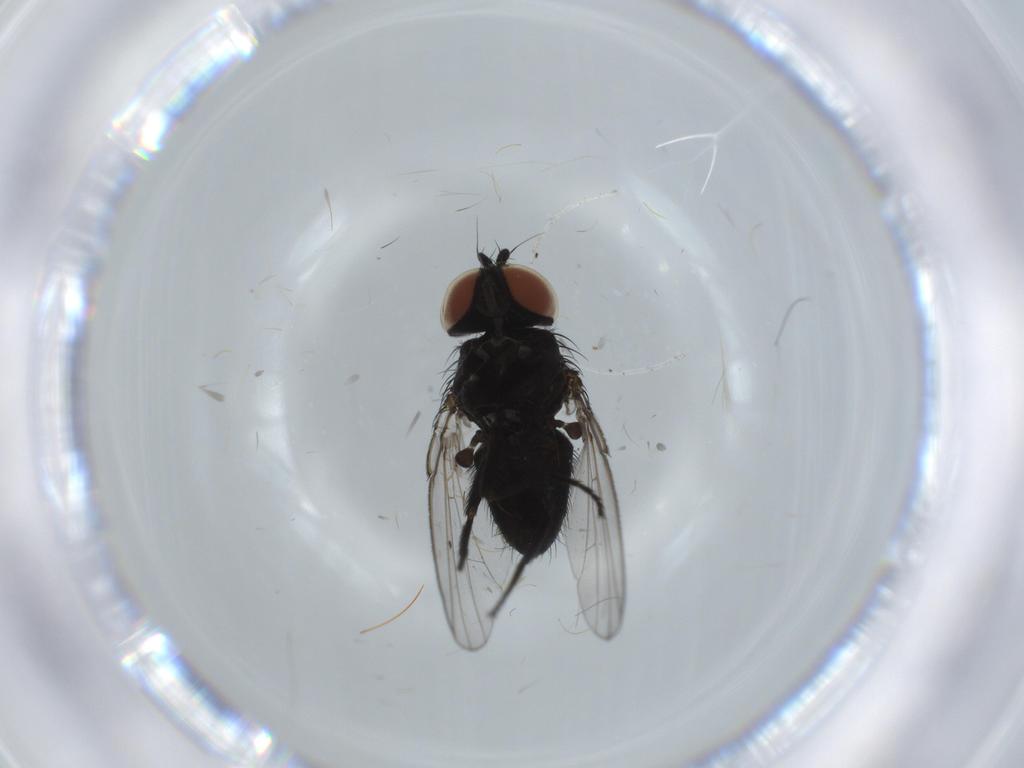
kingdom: Animalia
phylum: Arthropoda
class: Insecta
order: Diptera
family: Milichiidae
